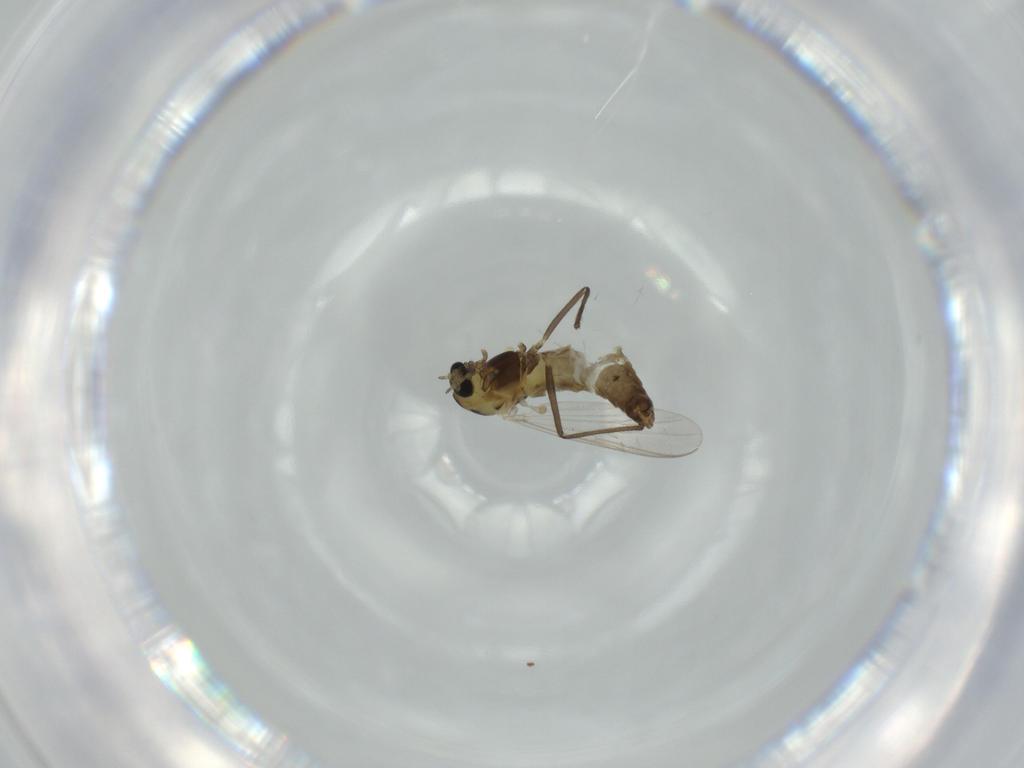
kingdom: Animalia
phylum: Arthropoda
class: Insecta
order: Diptera
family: Chironomidae
